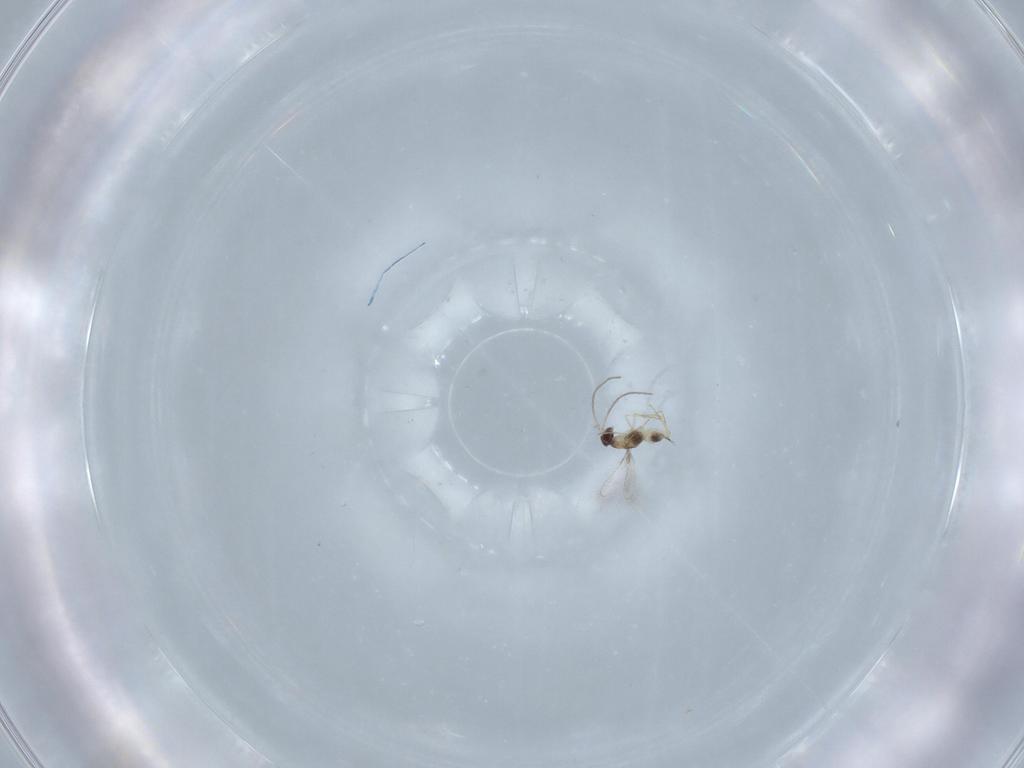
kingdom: Animalia
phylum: Arthropoda
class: Insecta
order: Hymenoptera
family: Mymaridae
